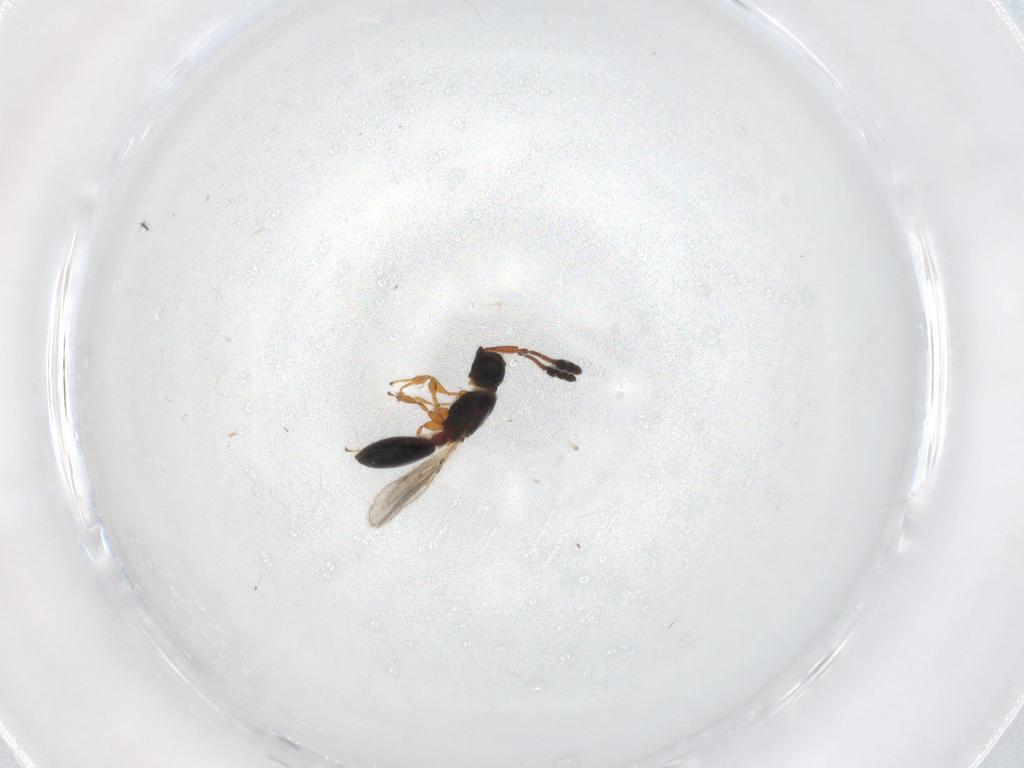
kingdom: Animalia
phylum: Arthropoda
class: Insecta
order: Hymenoptera
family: Diapriidae
